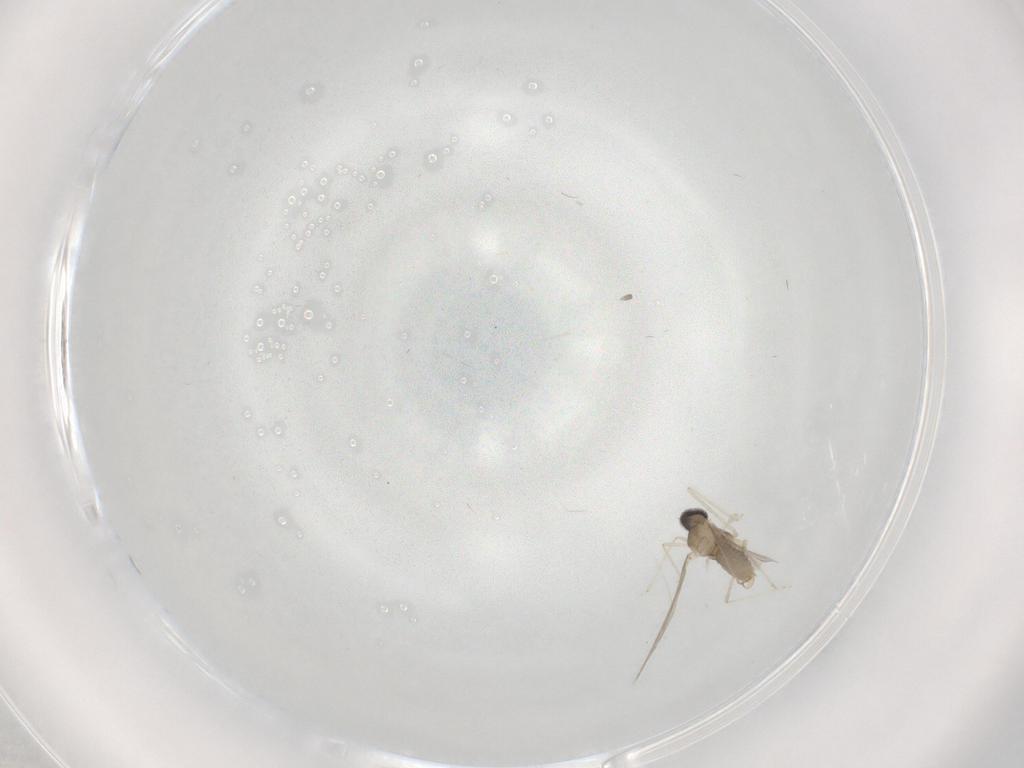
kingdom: Animalia
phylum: Arthropoda
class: Insecta
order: Diptera
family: Cecidomyiidae
